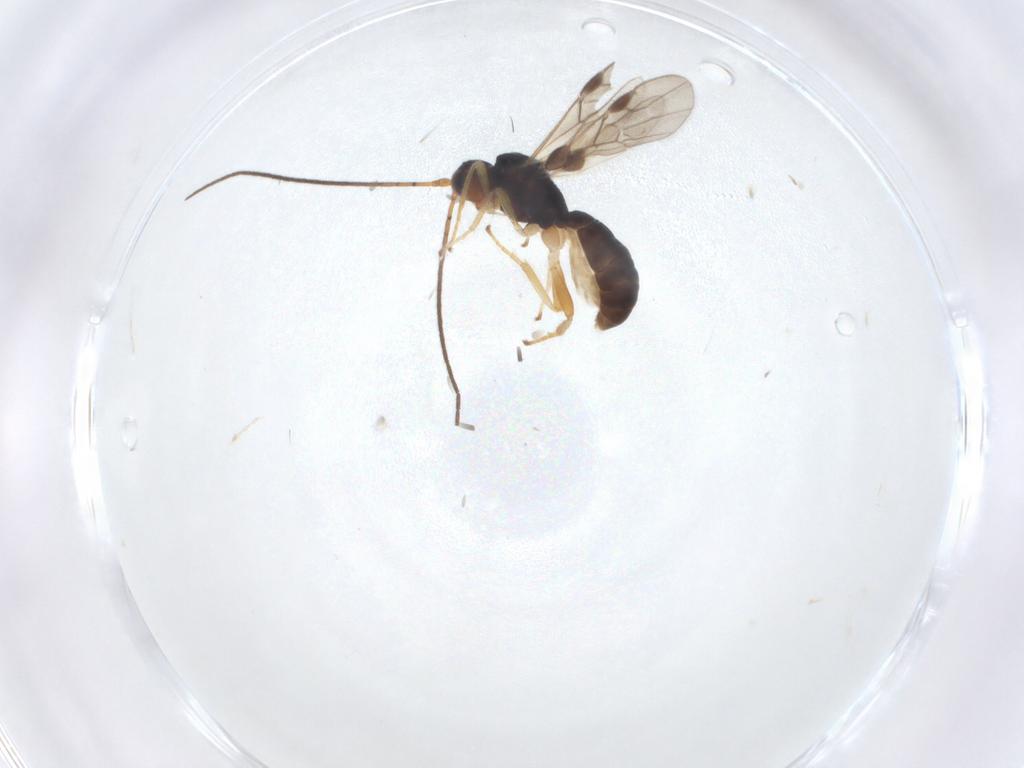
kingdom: Animalia
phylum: Arthropoda
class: Insecta
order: Hymenoptera
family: Braconidae
